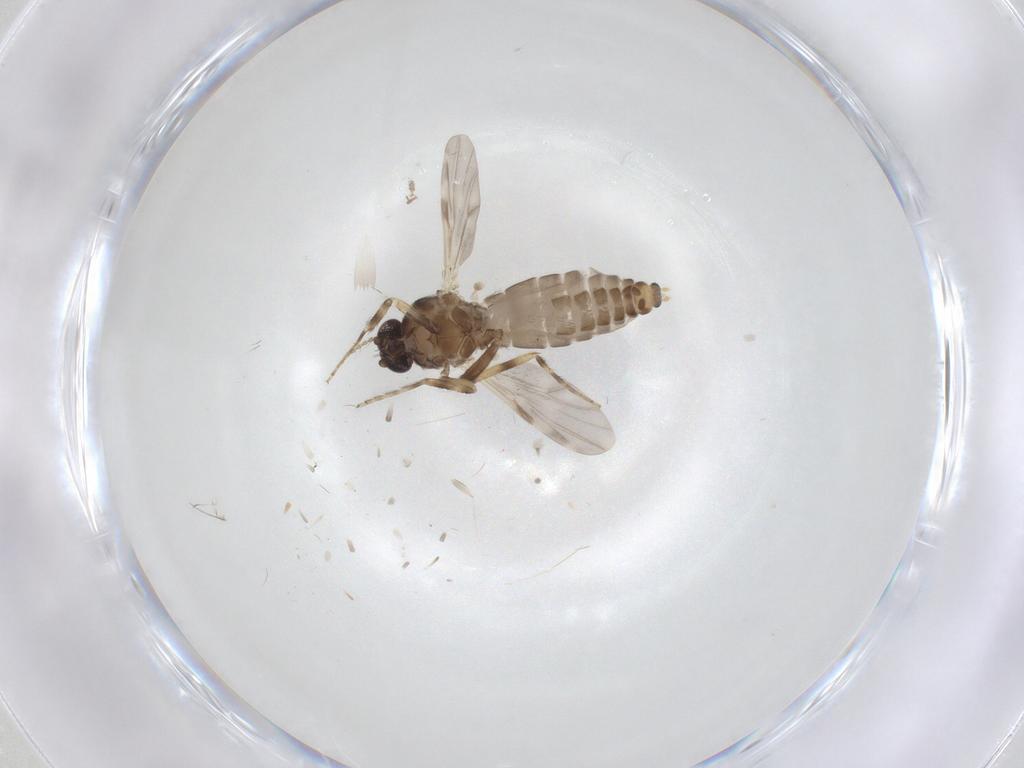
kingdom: Animalia
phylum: Arthropoda
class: Insecta
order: Diptera
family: Ceratopogonidae
